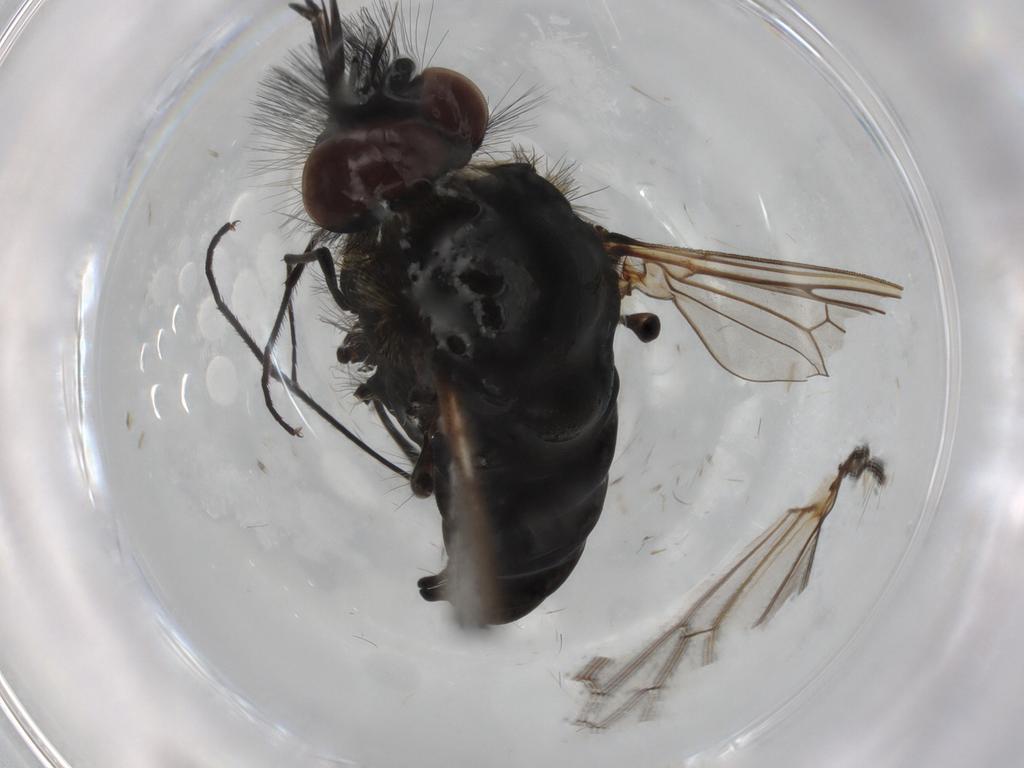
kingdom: Animalia
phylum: Arthropoda
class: Insecta
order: Diptera
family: Bombyliidae
